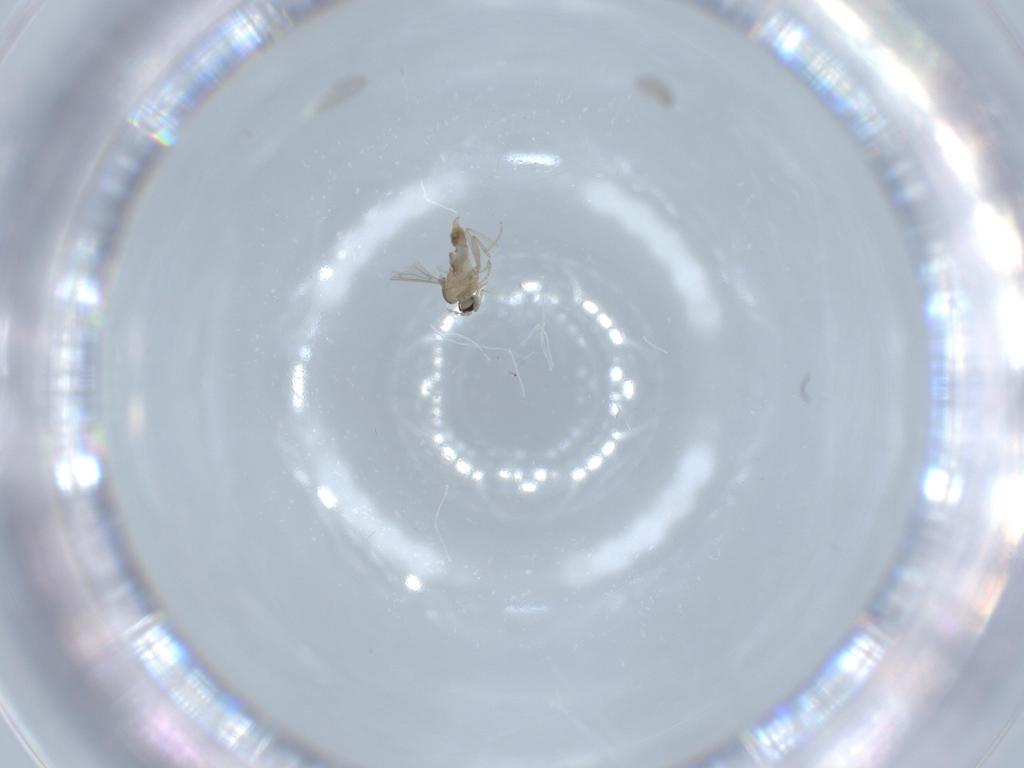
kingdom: Animalia
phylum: Arthropoda
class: Insecta
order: Diptera
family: Cecidomyiidae
